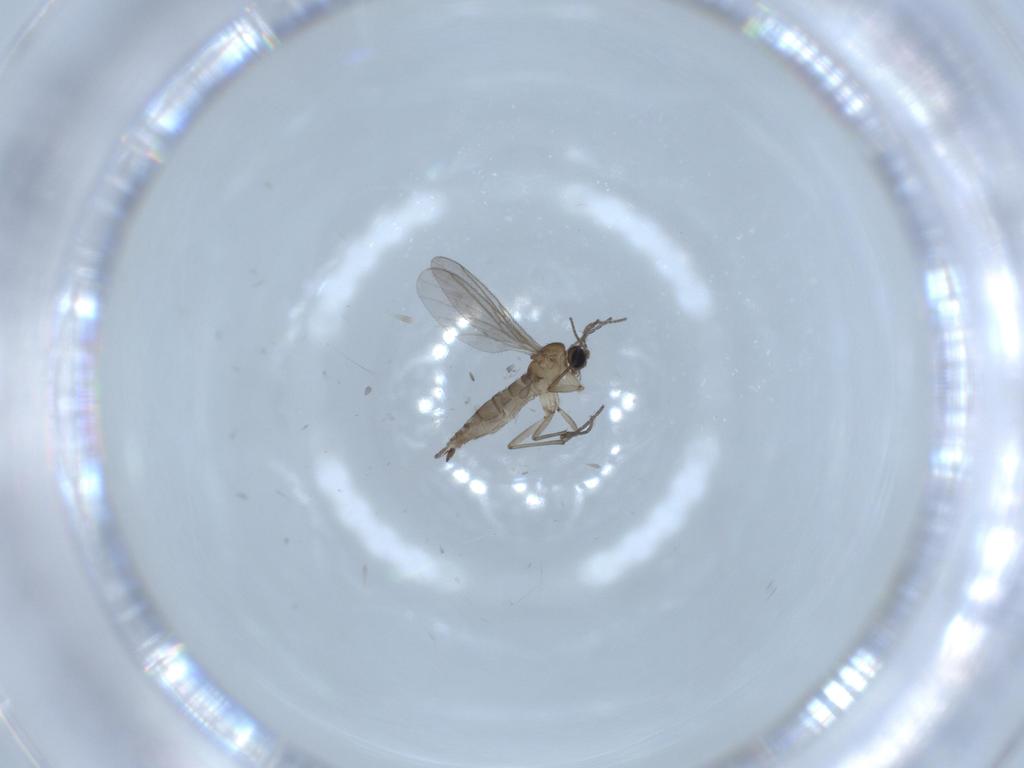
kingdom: Animalia
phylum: Arthropoda
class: Insecta
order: Diptera
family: Sciaridae
